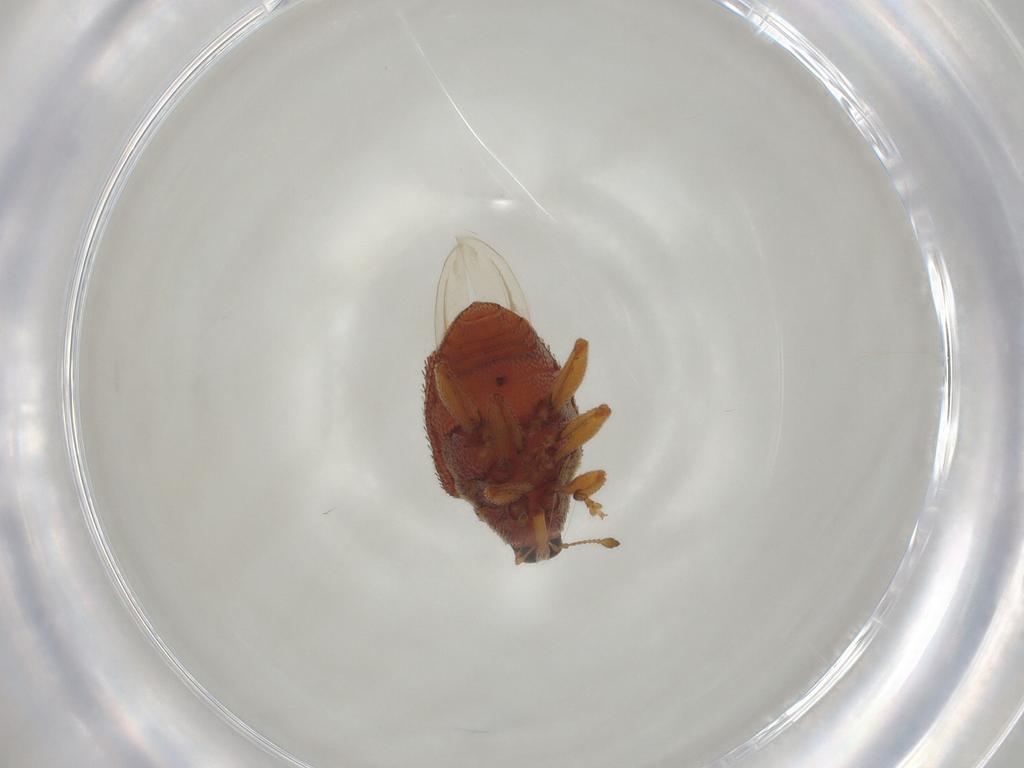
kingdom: Animalia
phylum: Arthropoda
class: Insecta
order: Coleoptera
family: Curculionidae
